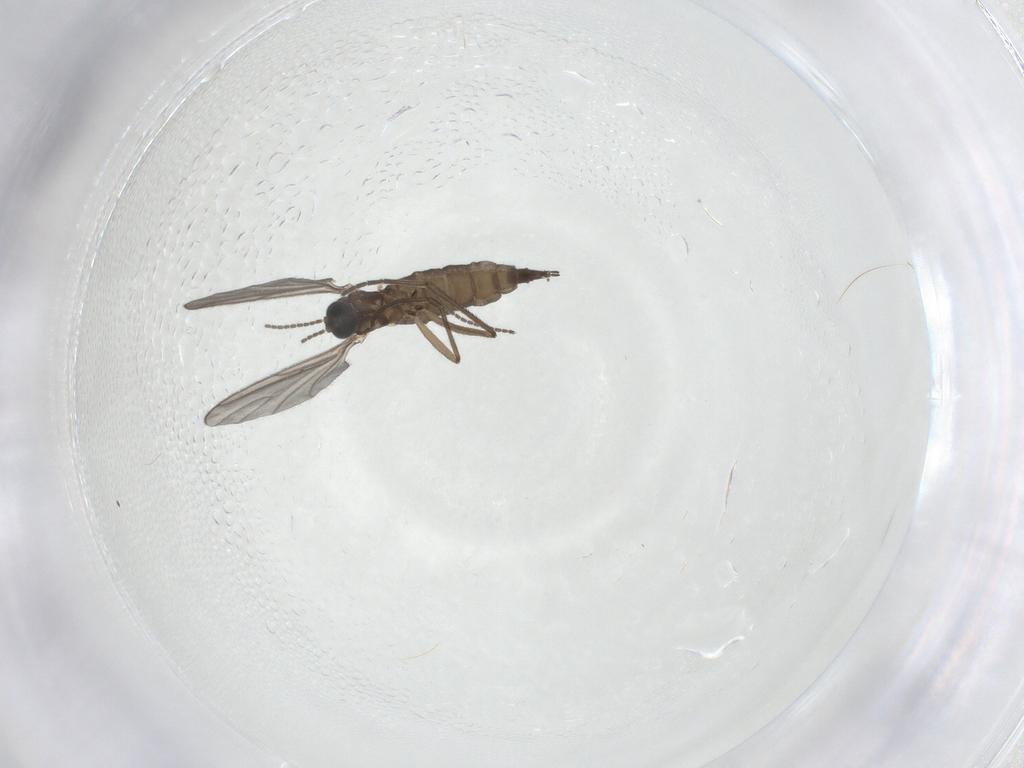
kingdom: Animalia
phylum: Arthropoda
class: Insecta
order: Diptera
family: Sciaridae
